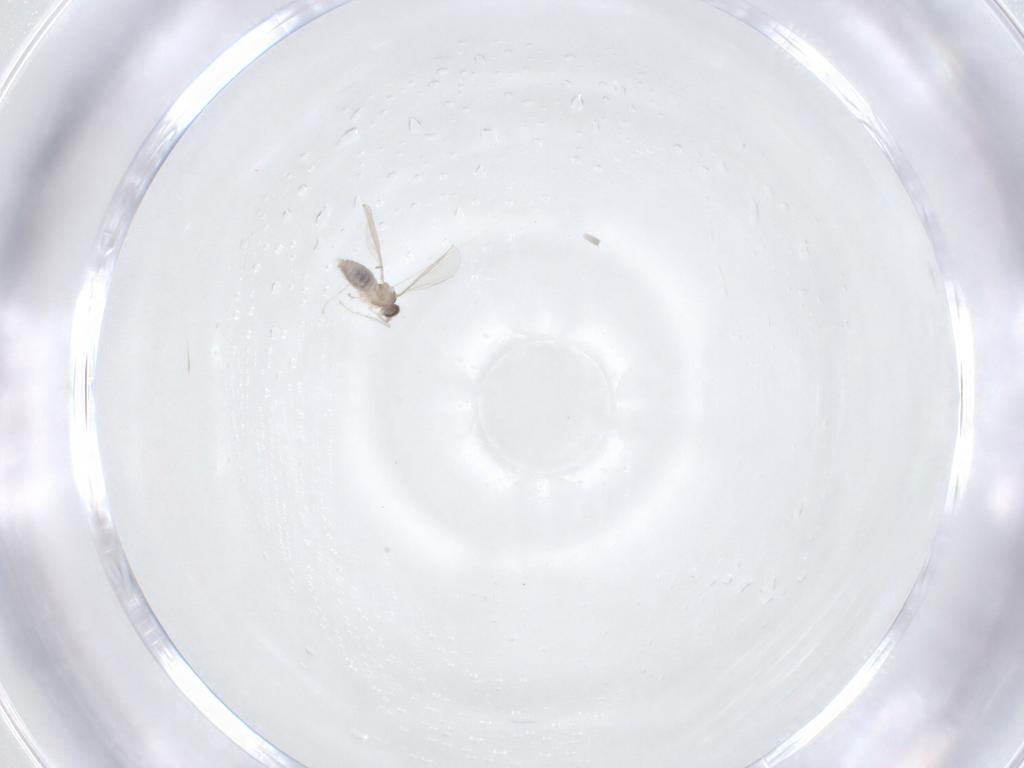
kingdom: Animalia
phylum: Arthropoda
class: Insecta
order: Diptera
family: Cecidomyiidae
